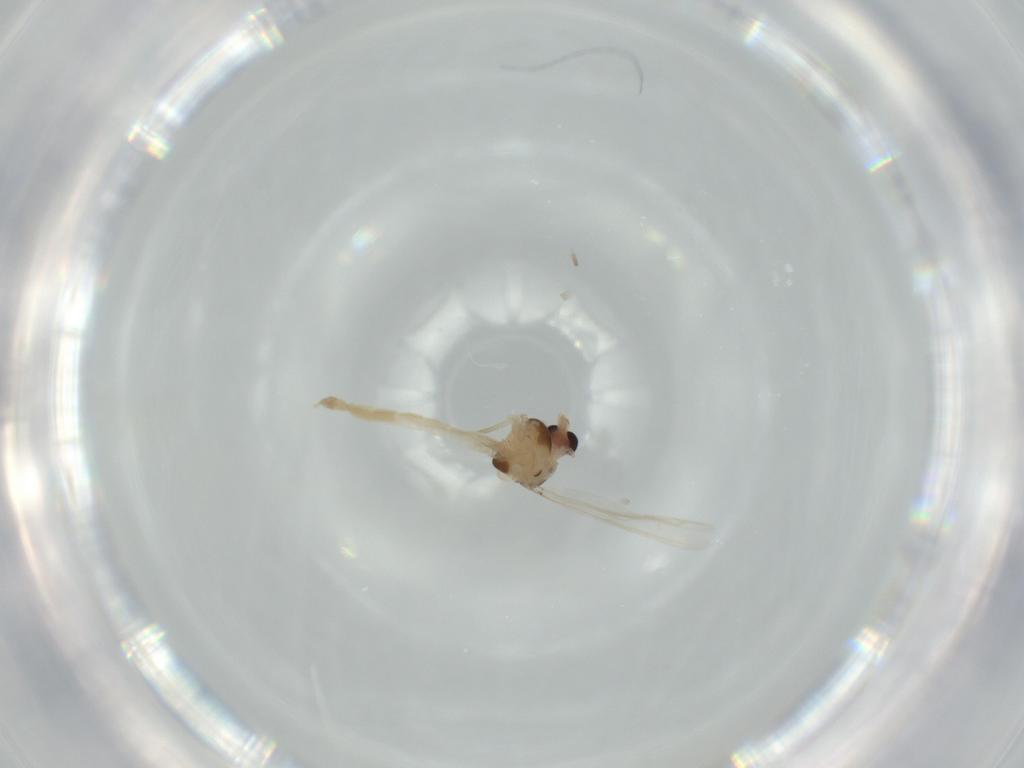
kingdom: Animalia
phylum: Arthropoda
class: Insecta
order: Diptera
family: Chironomidae
